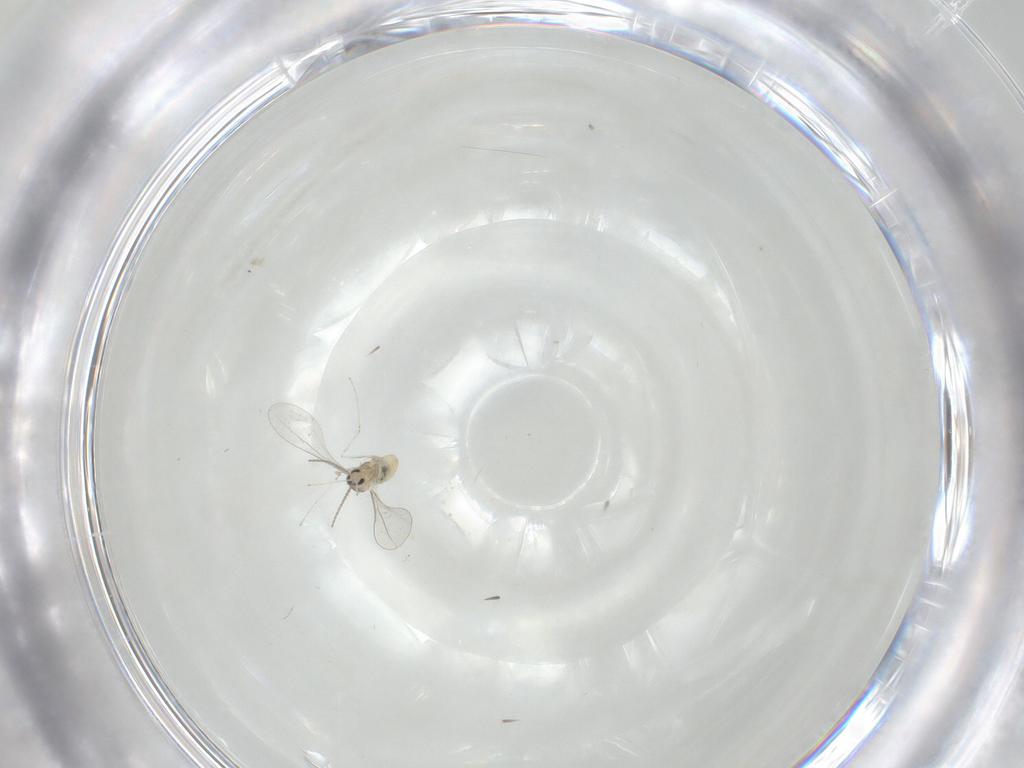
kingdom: Animalia
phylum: Arthropoda
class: Insecta
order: Diptera
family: Cecidomyiidae
